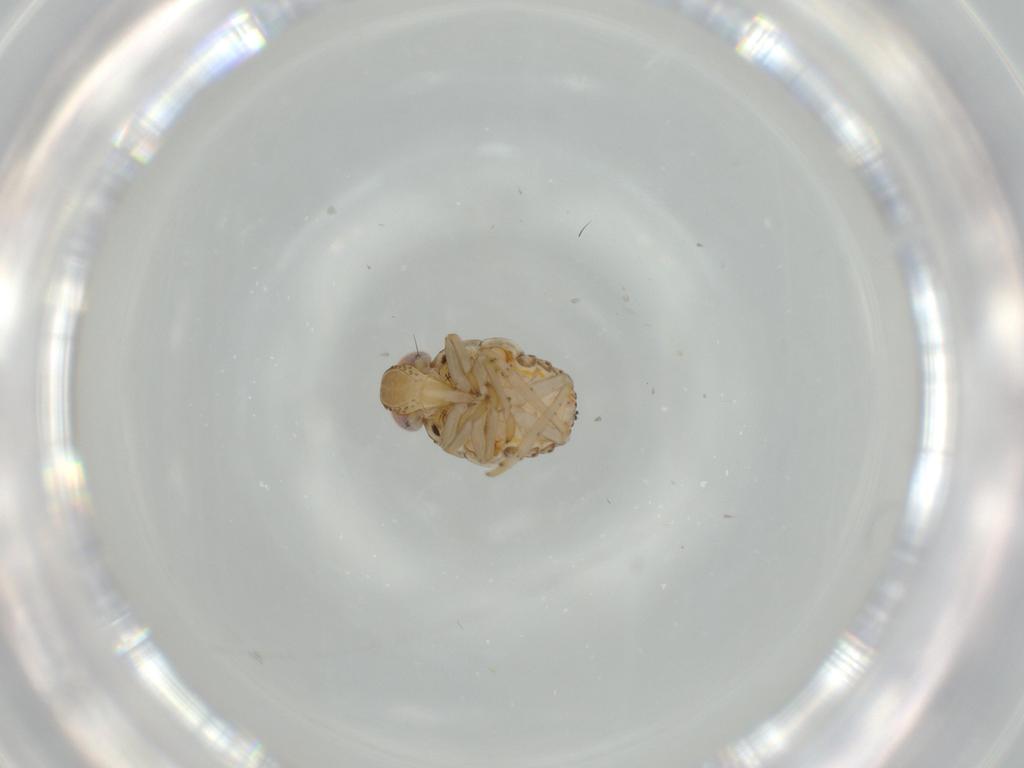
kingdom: Animalia
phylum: Arthropoda
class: Insecta
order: Hemiptera
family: Issidae
